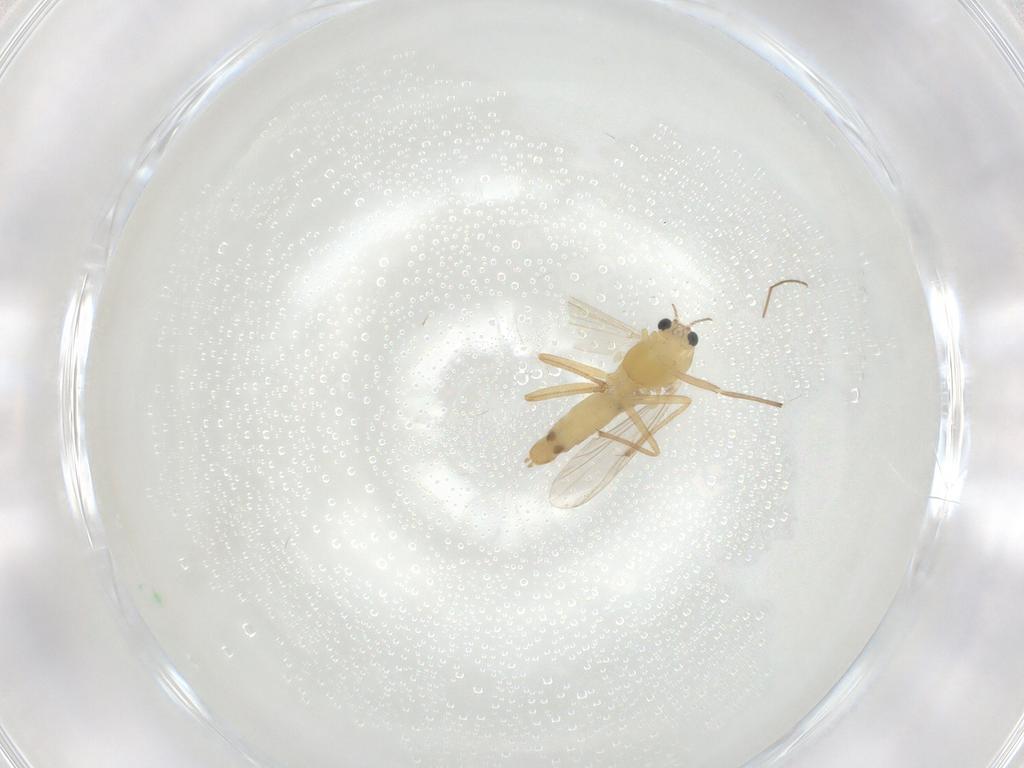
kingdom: Animalia
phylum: Arthropoda
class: Insecta
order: Diptera
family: Chironomidae
